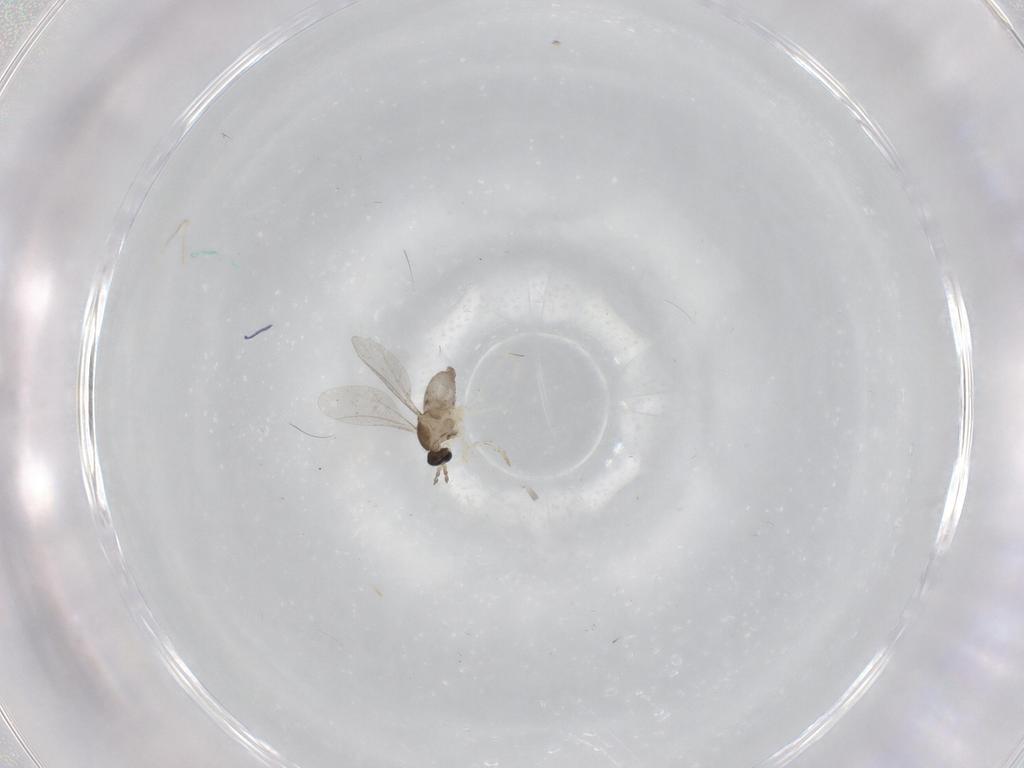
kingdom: Animalia
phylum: Arthropoda
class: Insecta
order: Diptera
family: Cecidomyiidae
